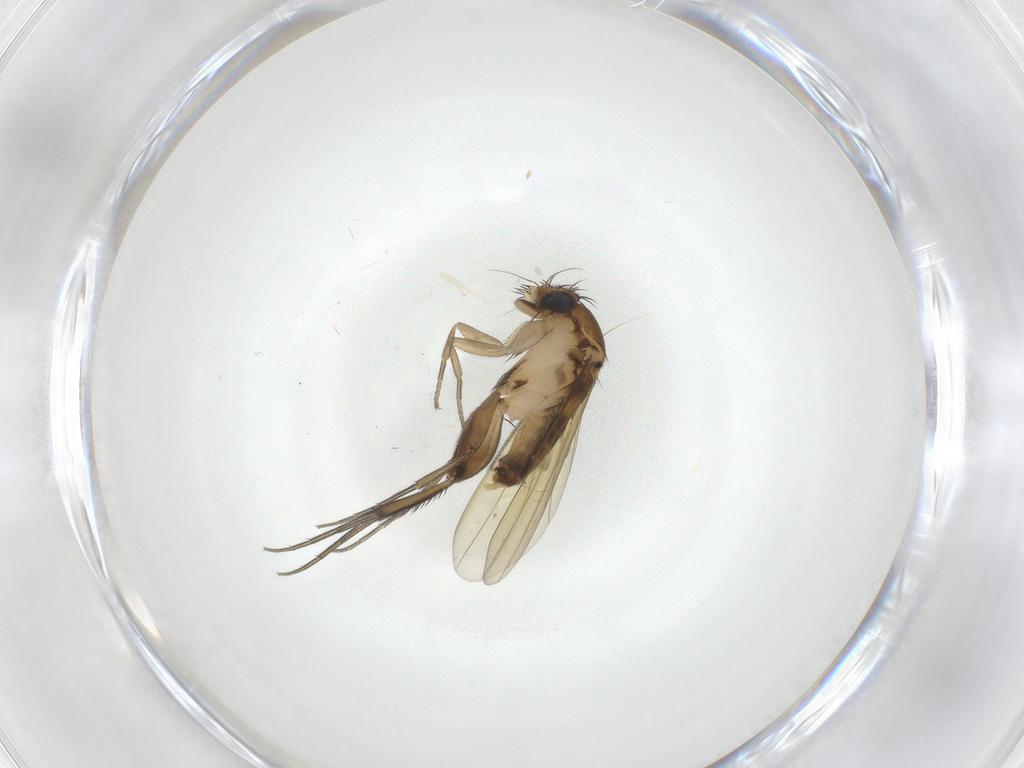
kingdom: Animalia
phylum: Arthropoda
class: Insecta
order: Diptera
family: Phoridae
